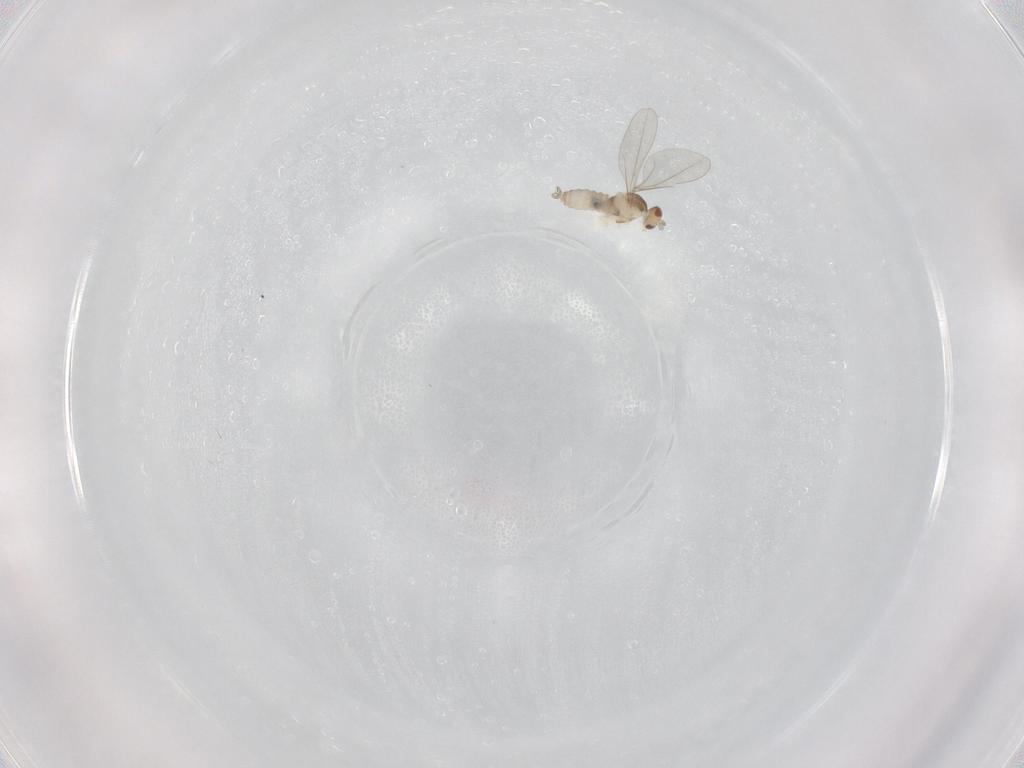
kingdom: Animalia
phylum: Arthropoda
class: Insecta
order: Diptera
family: Cecidomyiidae
